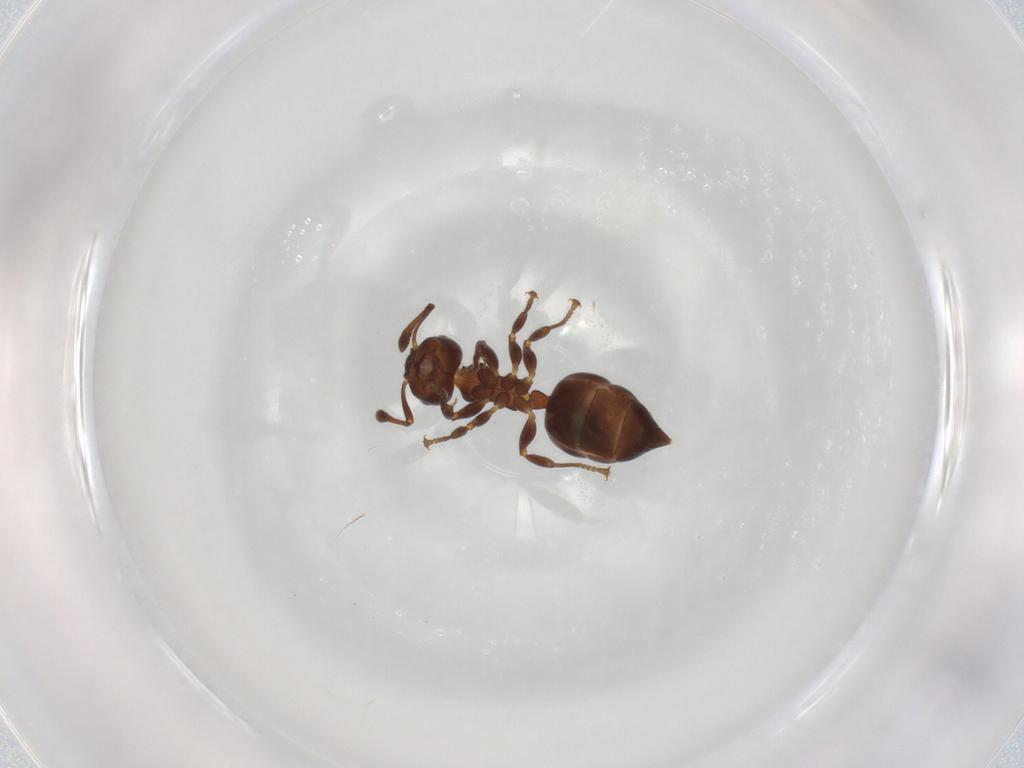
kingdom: Animalia
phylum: Arthropoda
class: Insecta
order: Hymenoptera
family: Formicidae
